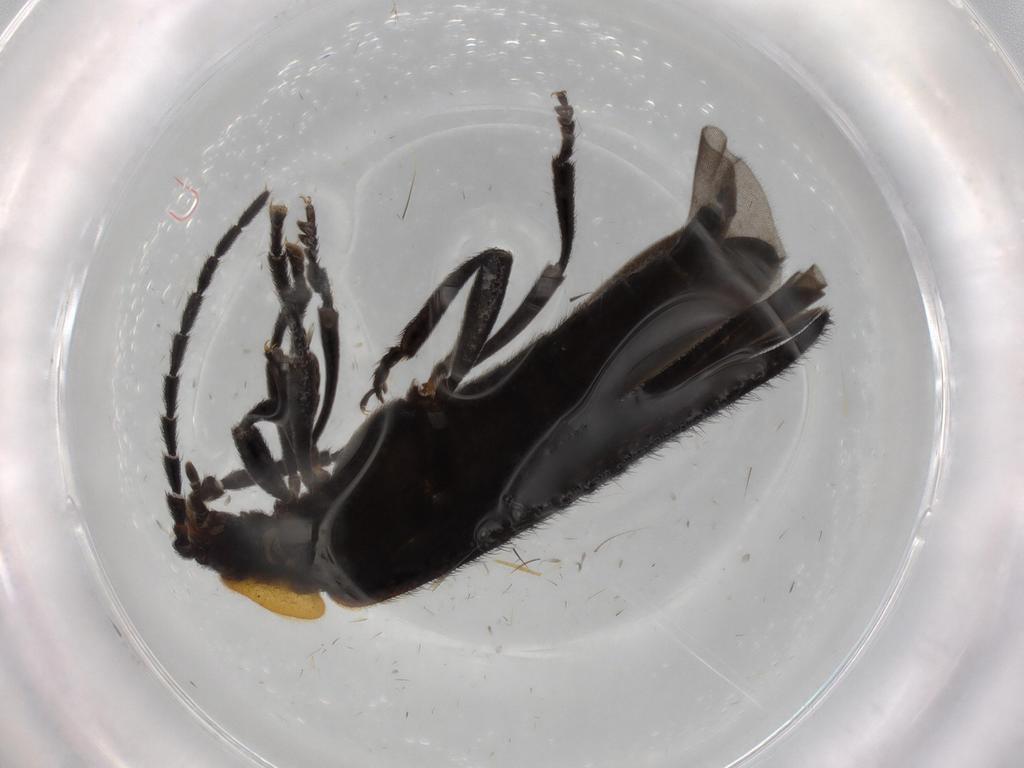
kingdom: Animalia
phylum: Arthropoda
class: Insecta
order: Coleoptera
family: Lycidae
